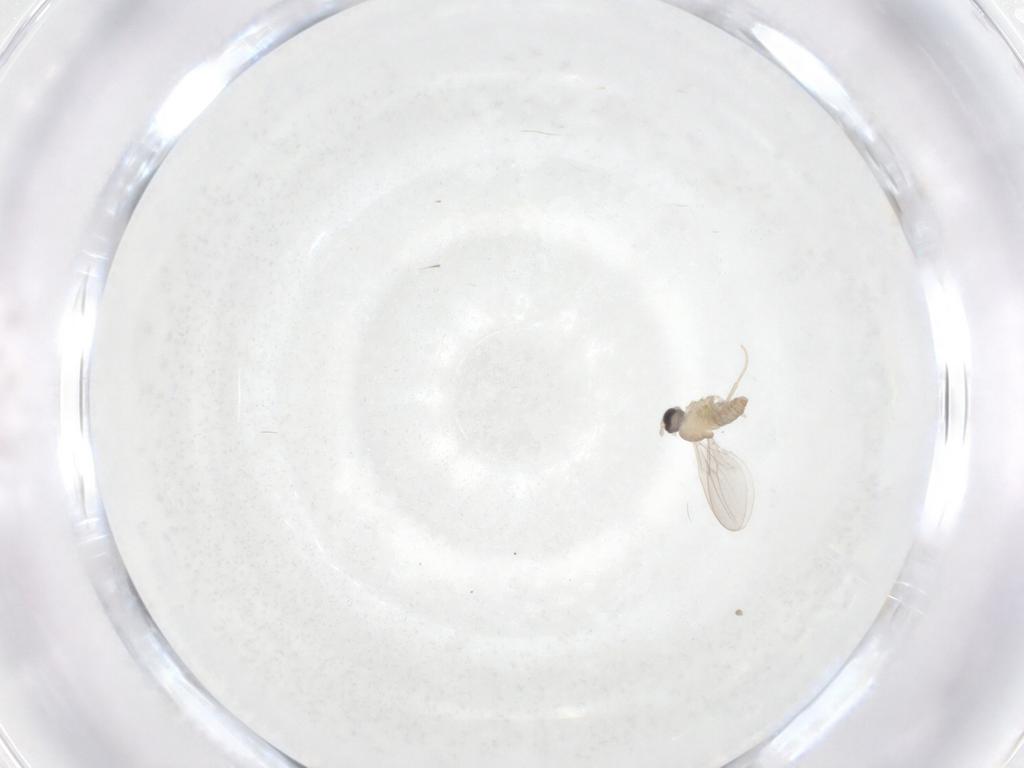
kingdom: Animalia
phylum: Arthropoda
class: Insecta
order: Diptera
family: Cecidomyiidae
